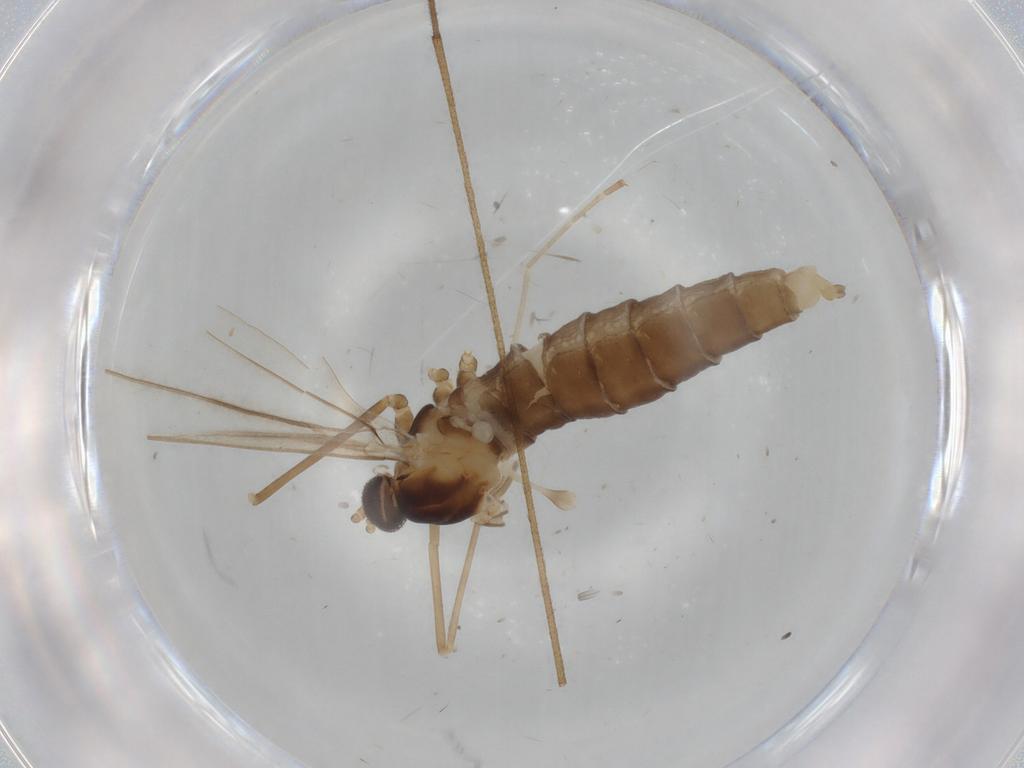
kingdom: Animalia
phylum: Arthropoda
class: Insecta
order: Diptera
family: Cecidomyiidae
